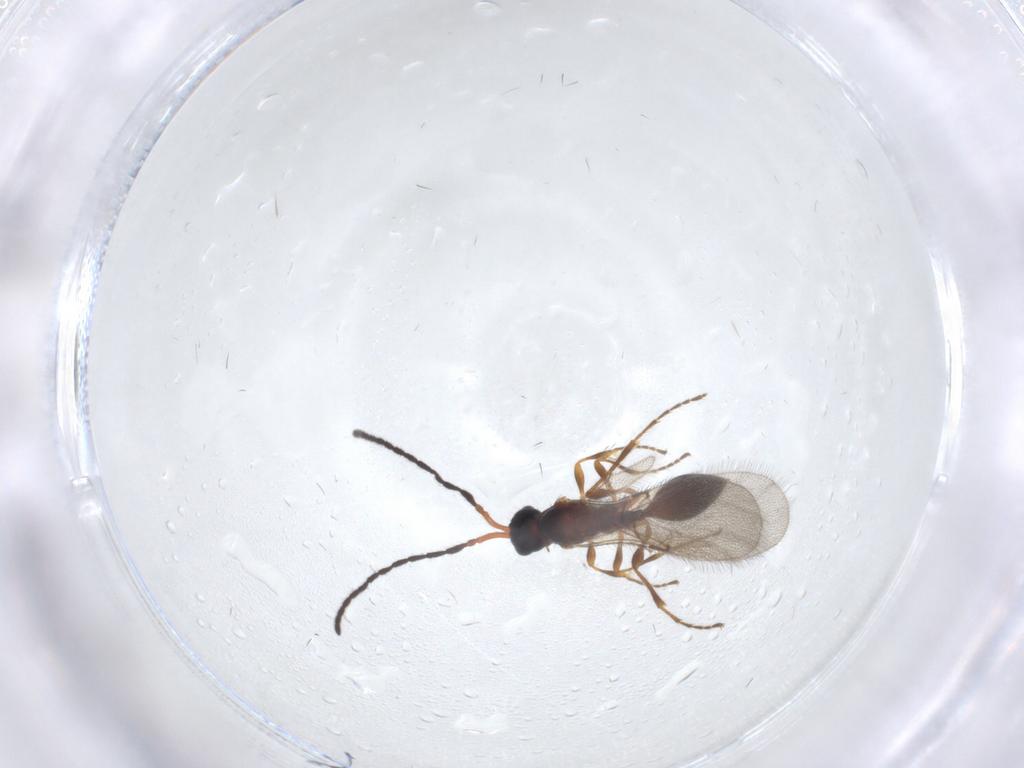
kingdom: Animalia
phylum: Arthropoda
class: Insecta
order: Hymenoptera
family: Diapriidae
